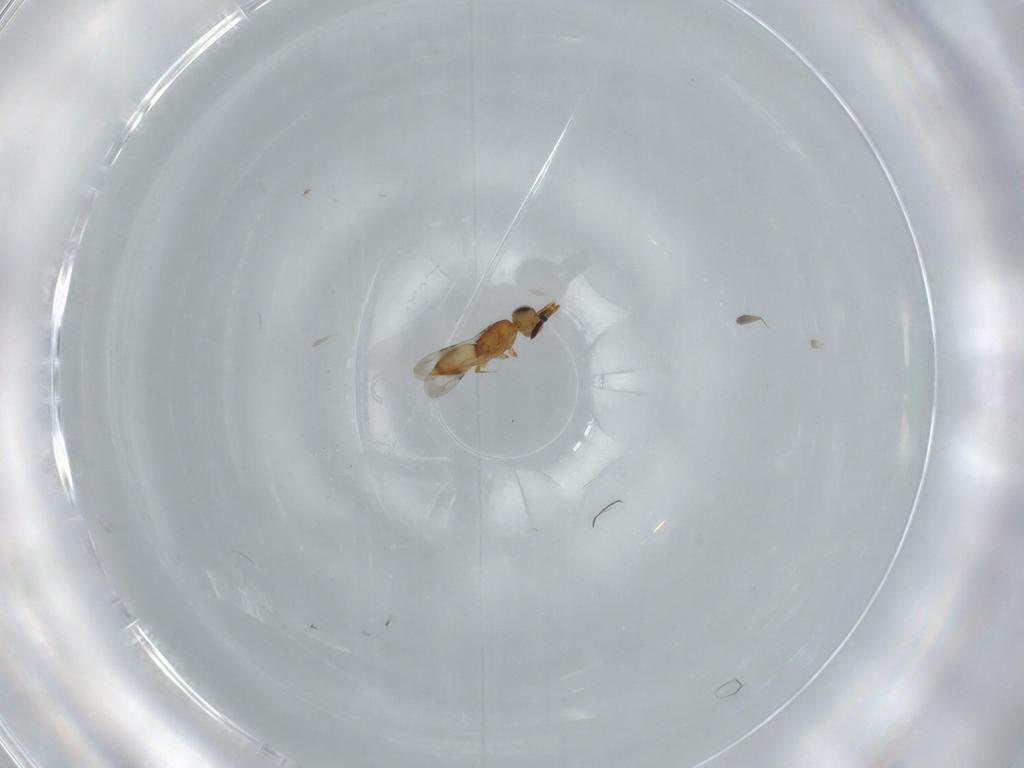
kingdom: Animalia
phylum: Arthropoda
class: Insecta
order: Hymenoptera
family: Ceraphronidae
